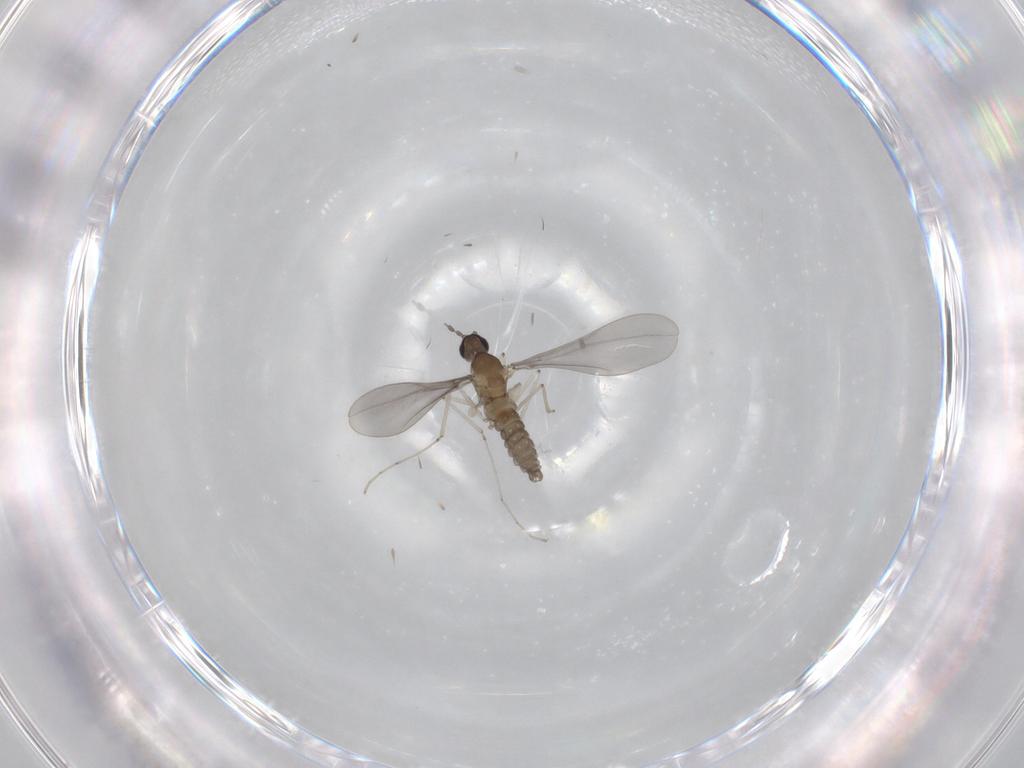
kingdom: Animalia
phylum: Arthropoda
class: Insecta
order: Diptera
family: Cecidomyiidae
